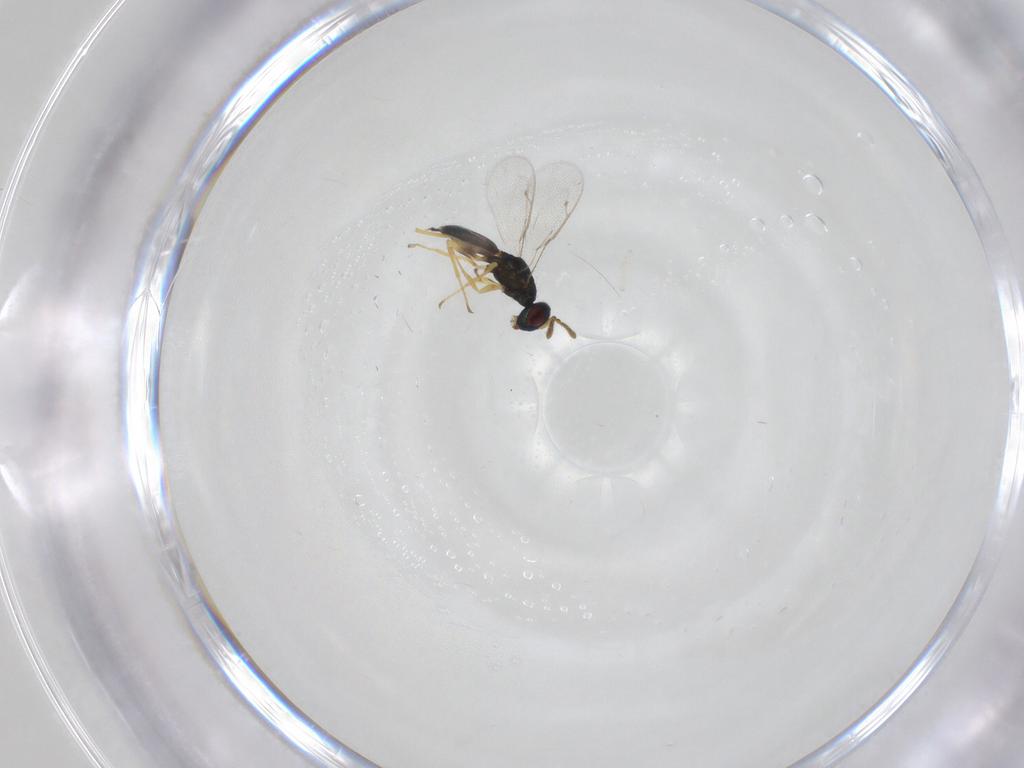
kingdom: Animalia
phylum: Arthropoda
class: Insecta
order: Hymenoptera
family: Pteromalidae
